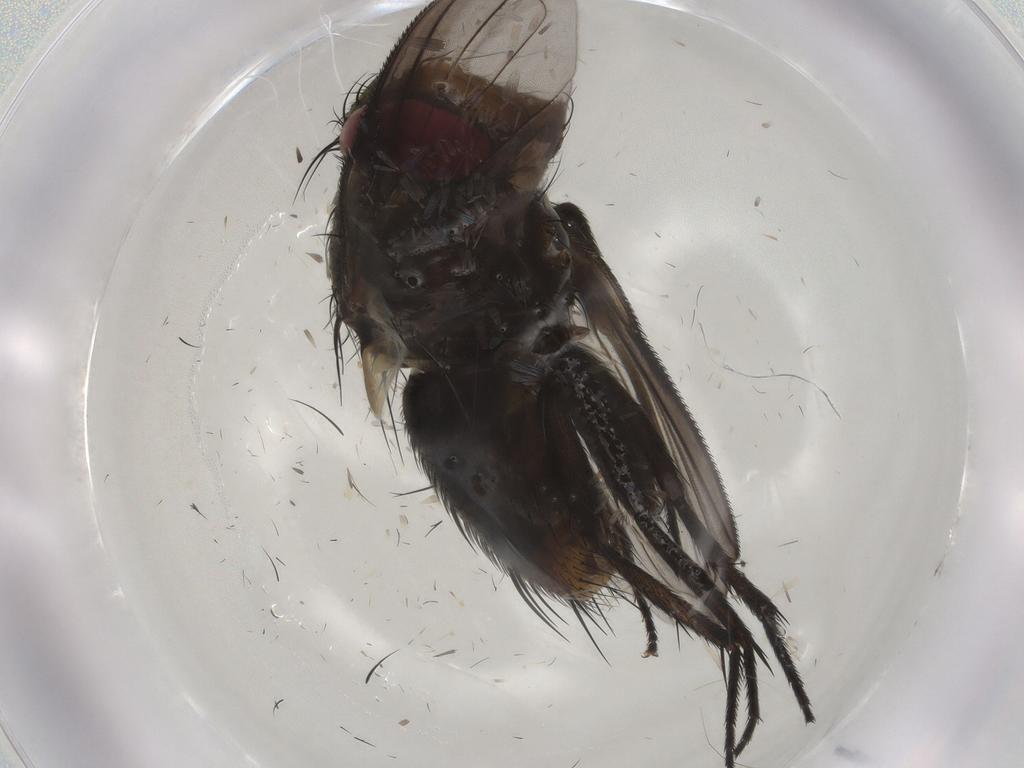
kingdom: Animalia
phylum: Arthropoda
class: Insecta
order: Diptera
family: Tachinidae
